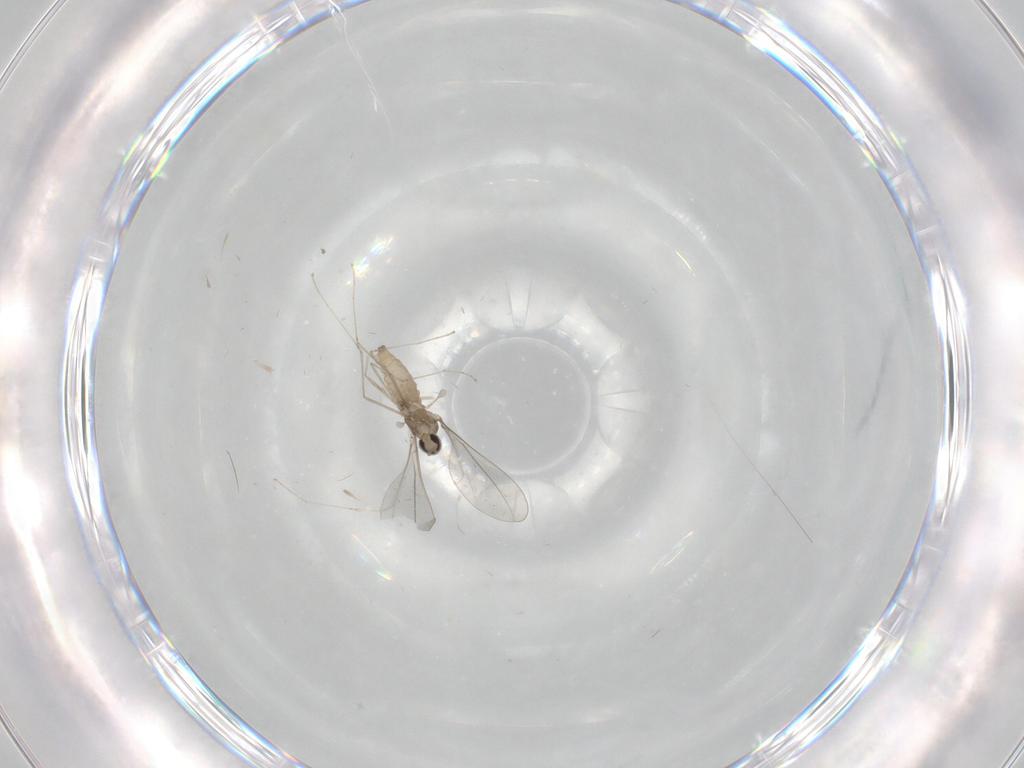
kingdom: Animalia
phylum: Arthropoda
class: Insecta
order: Diptera
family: Cecidomyiidae
